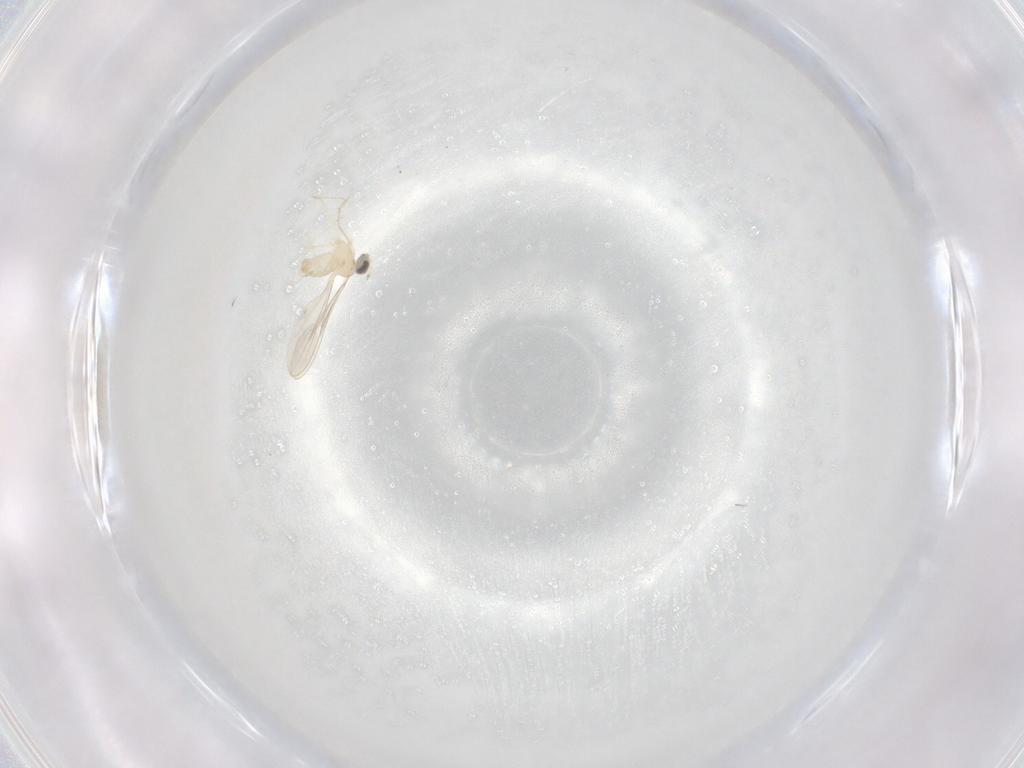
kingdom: Animalia
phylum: Arthropoda
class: Insecta
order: Diptera
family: Cecidomyiidae
